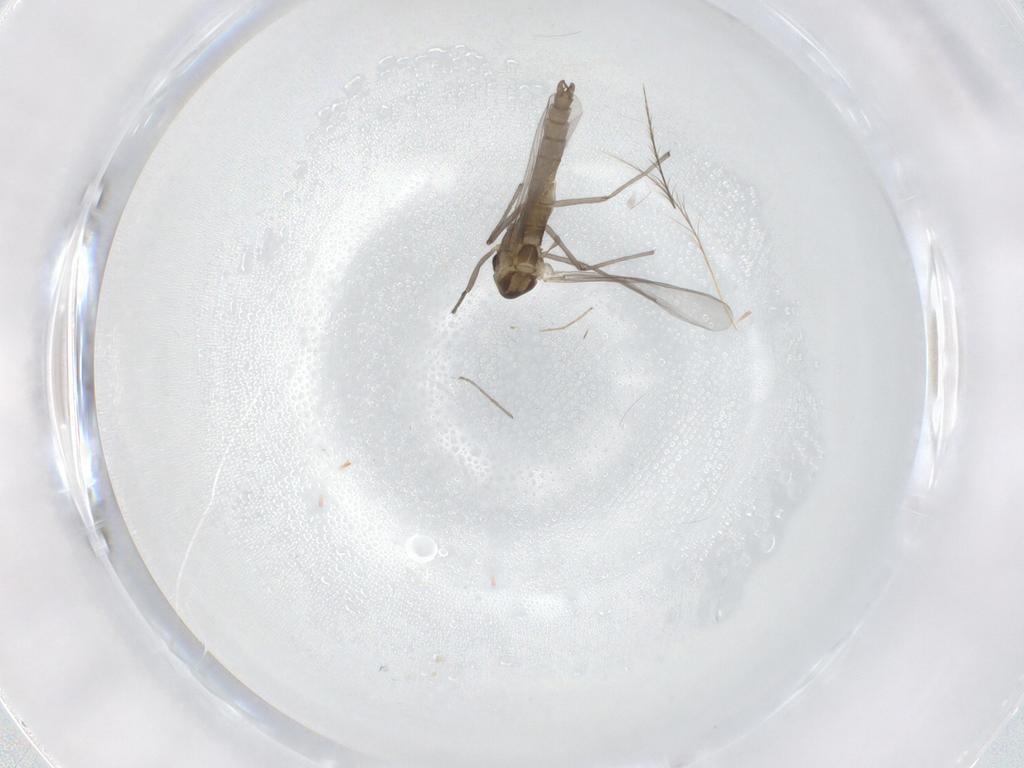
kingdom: Animalia
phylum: Arthropoda
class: Insecta
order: Diptera
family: Chironomidae
